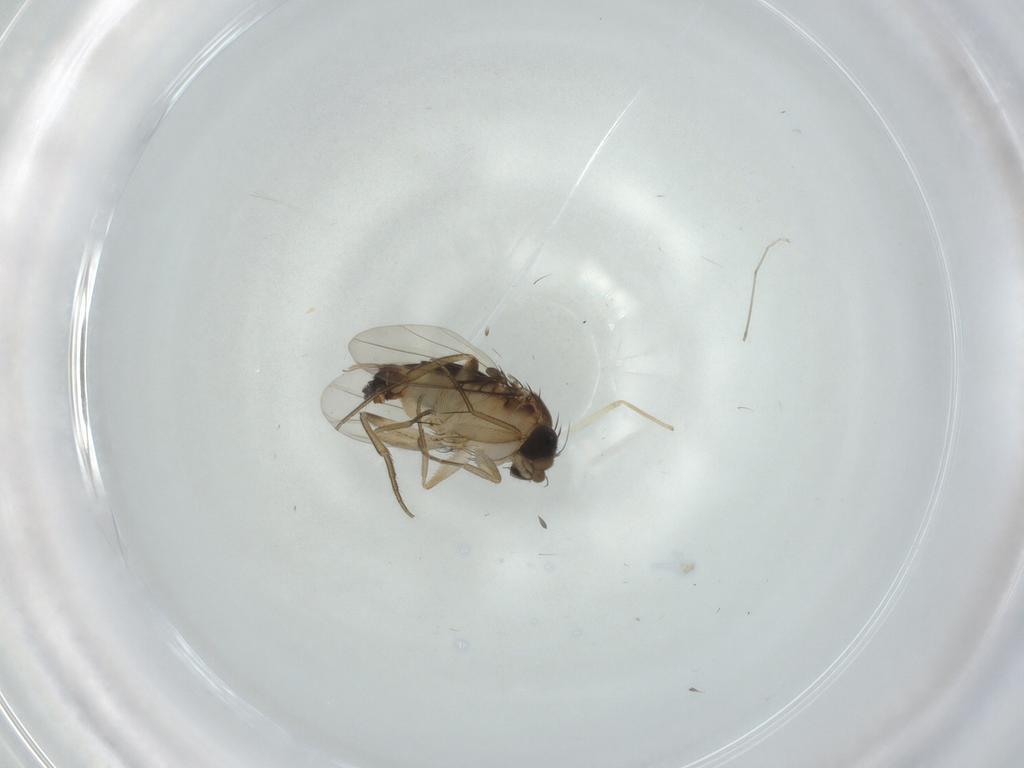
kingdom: Animalia
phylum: Arthropoda
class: Insecta
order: Diptera
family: Phoridae
